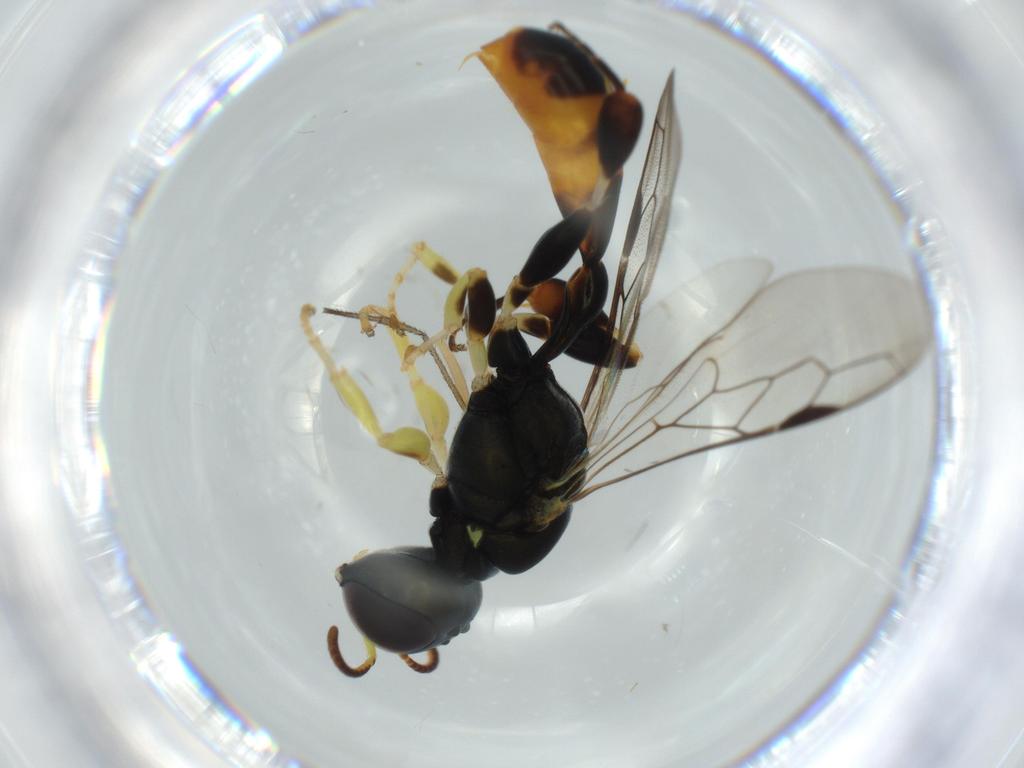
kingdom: Animalia
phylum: Arthropoda
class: Insecta
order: Hymenoptera
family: Crabronidae
